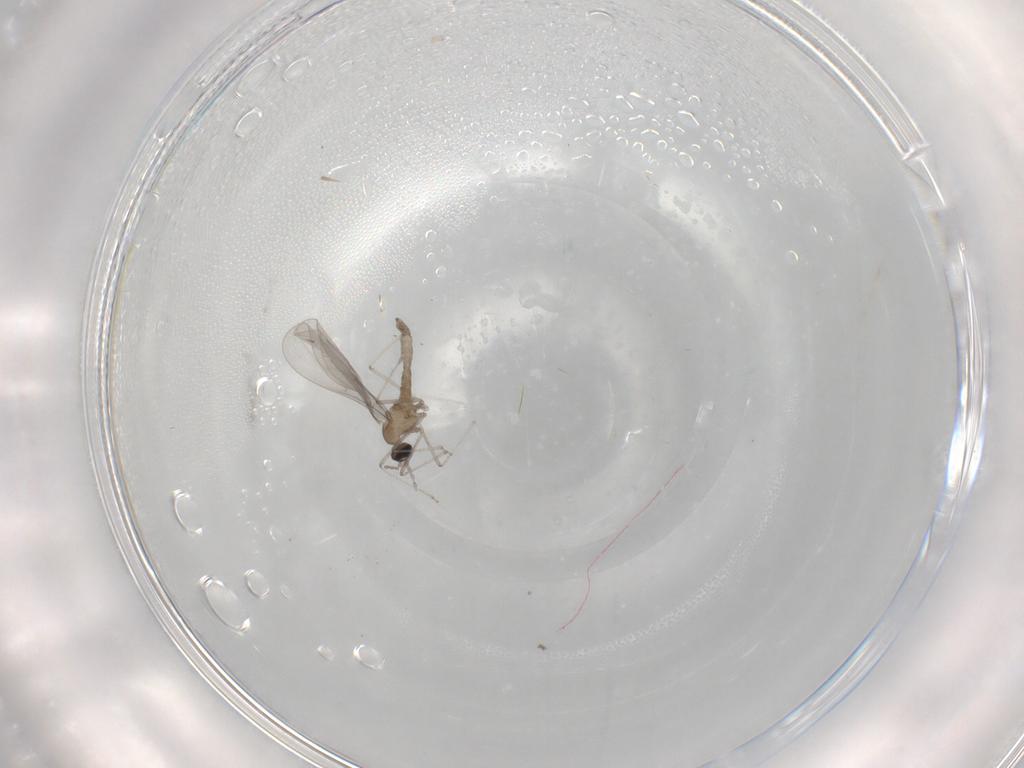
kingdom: Animalia
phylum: Arthropoda
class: Insecta
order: Diptera
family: Cecidomyiidae
